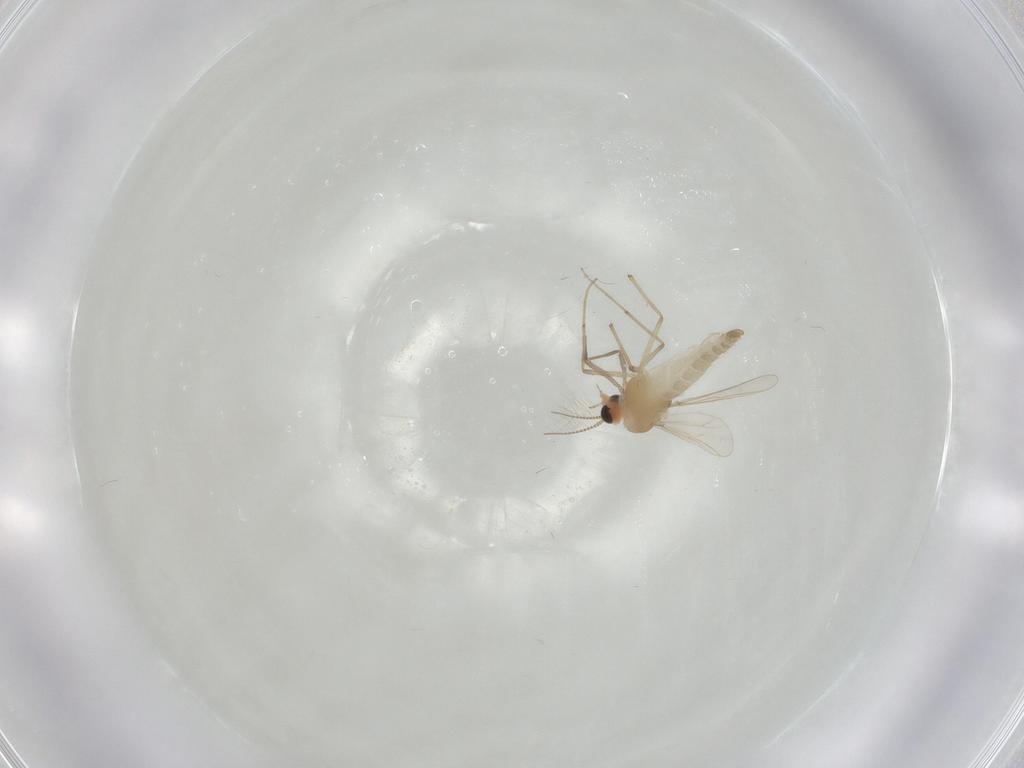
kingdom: Animalia
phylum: Arthropoda
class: Insecta
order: Diptera
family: Chironomidae
